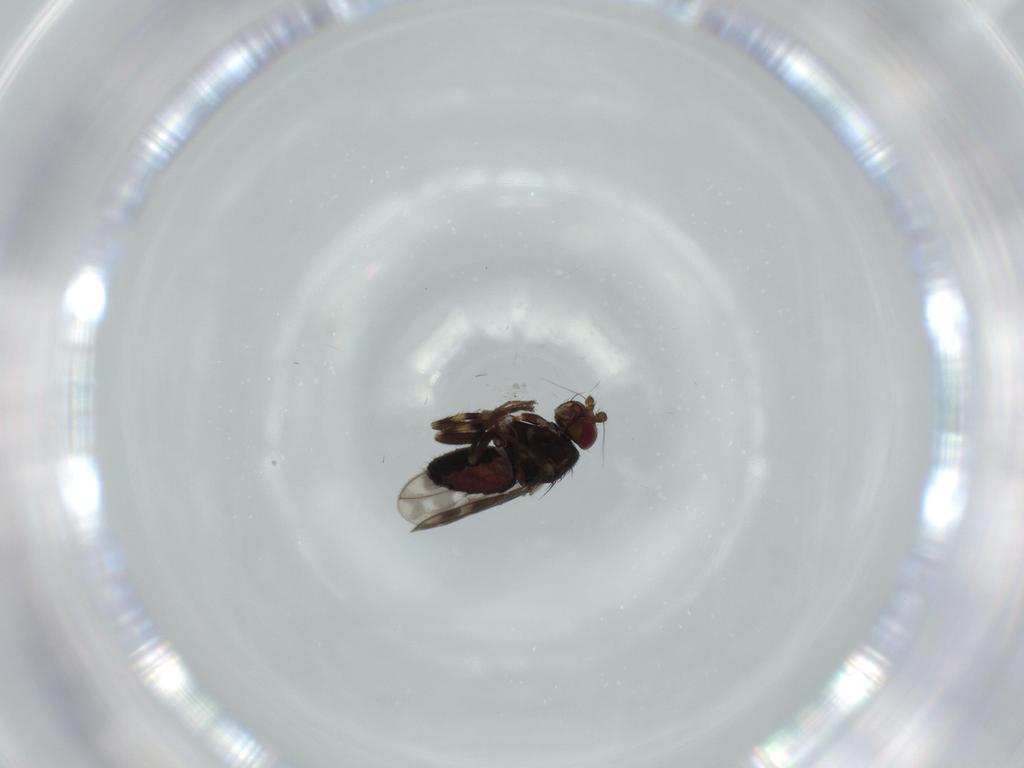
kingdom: Animalia
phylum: Arthropoda
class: Insecta
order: Diptera
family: Sphaeroceridae
